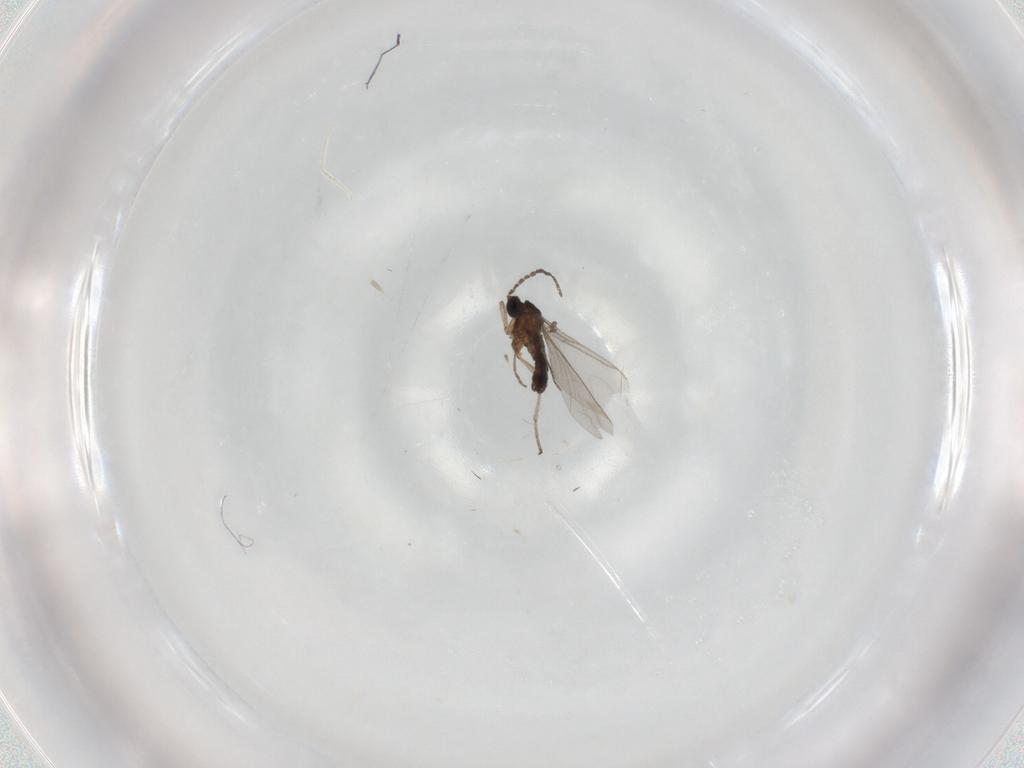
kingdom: Animalia
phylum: Arthropoda
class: Insecta
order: Diptera
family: Sciaridae
